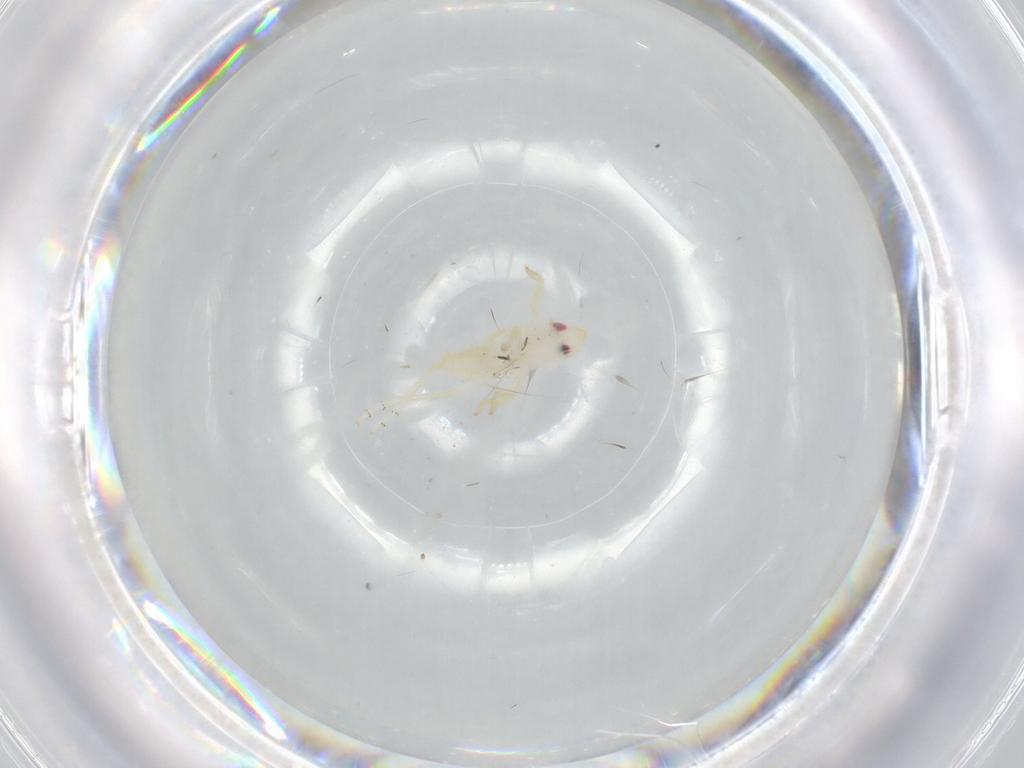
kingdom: Animalia
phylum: Arthropoda
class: Insecta
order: Hemiptera
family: Tropiduchidae
